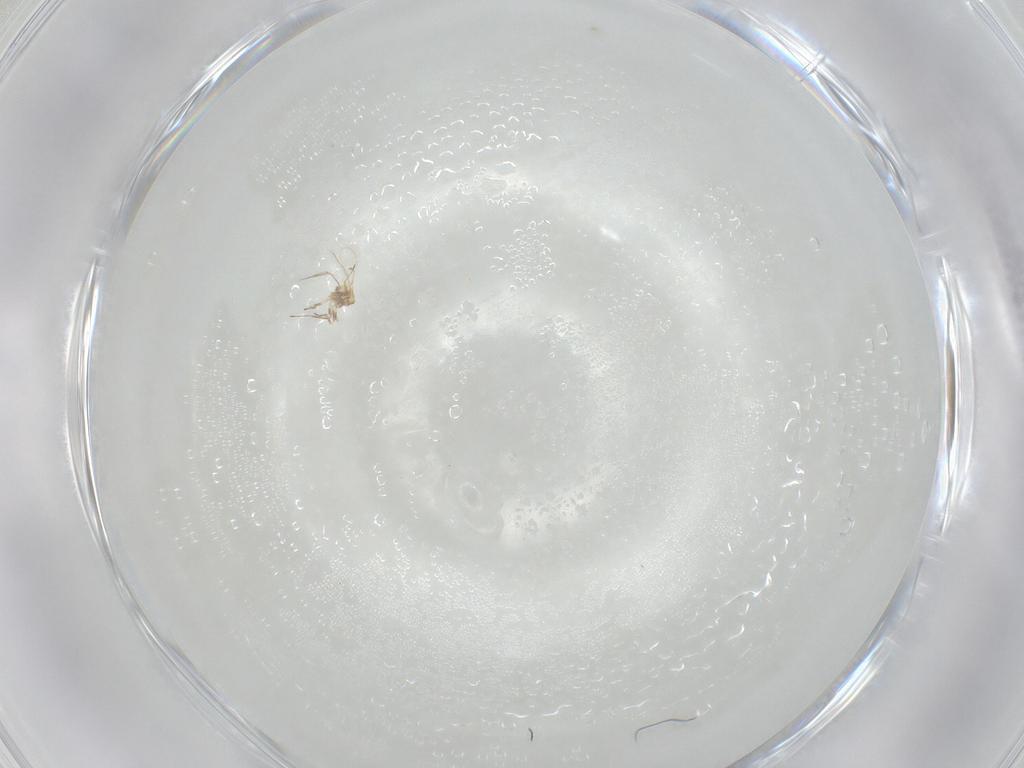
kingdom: Animalia
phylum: Arthropoda
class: Insecta
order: Hymenoptera
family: Trichogrammatidae
